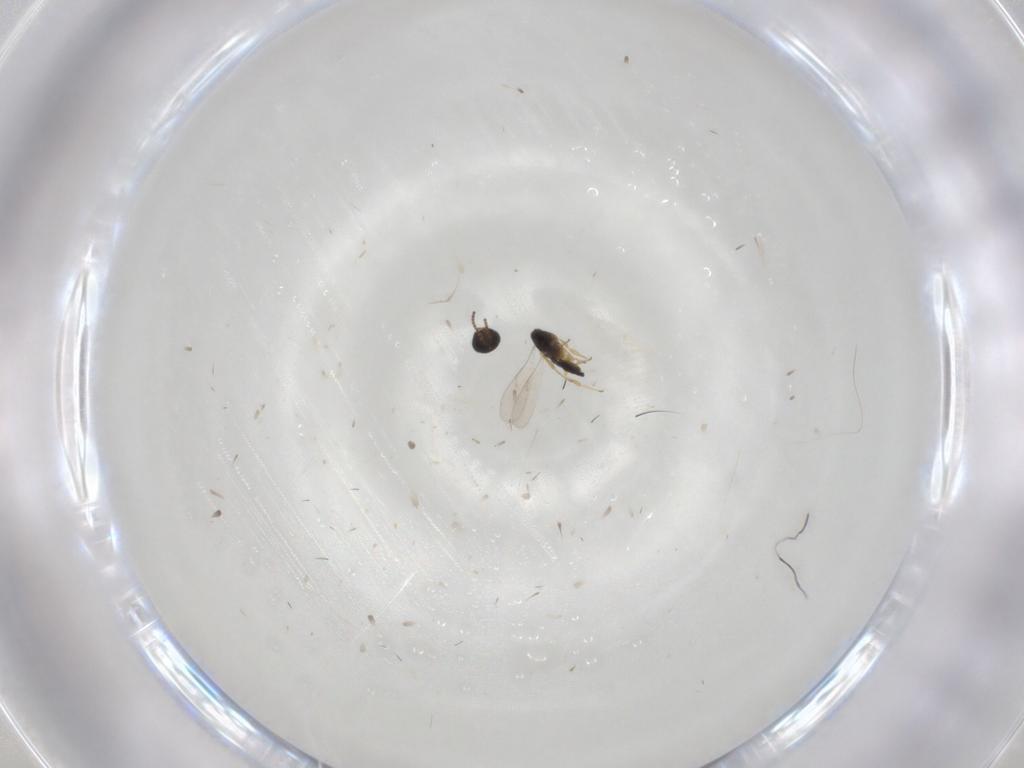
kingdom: Animalia
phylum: Arthropoda
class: Insecta
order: Hymenoptera
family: Scelionidae
